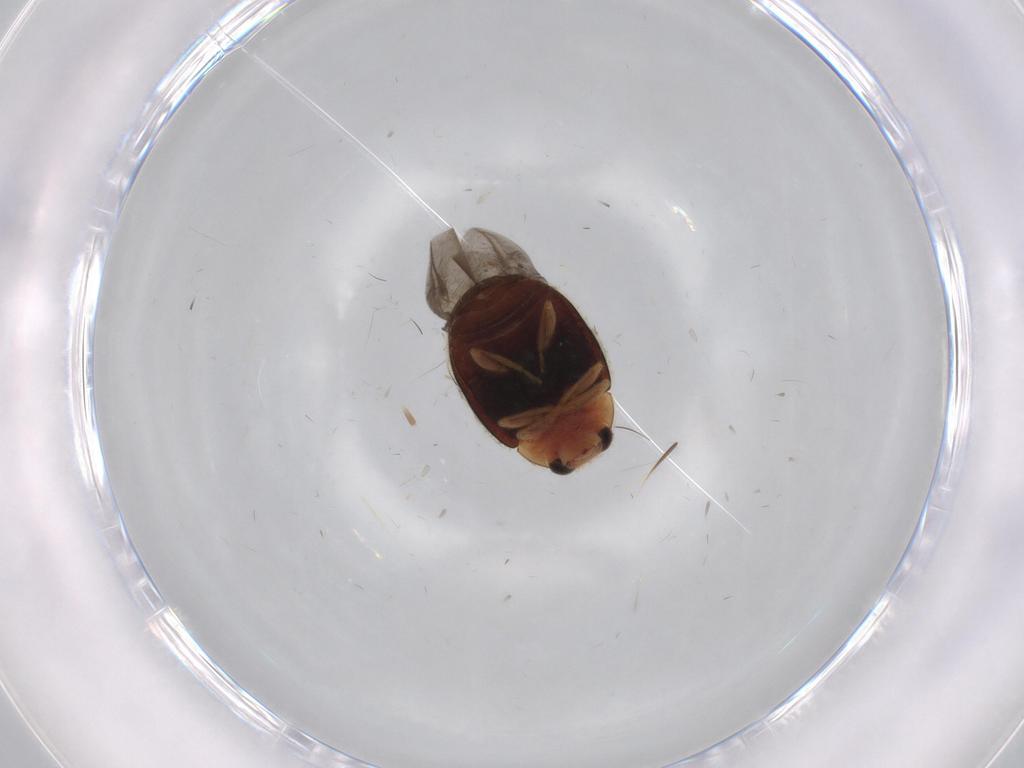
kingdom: Animalia
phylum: Arthropoda
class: Insecta
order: Coleoptera
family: Coccinellidae
